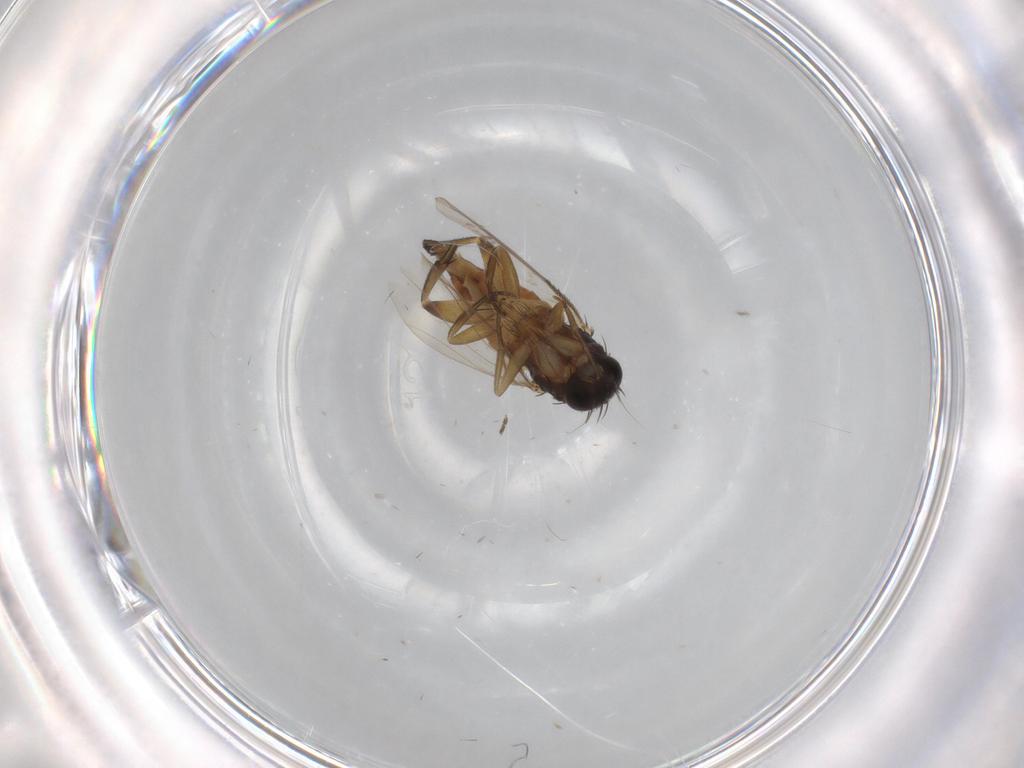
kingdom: Animalia
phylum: Arthropoda
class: Insecta
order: Diptera
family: Phoridae
